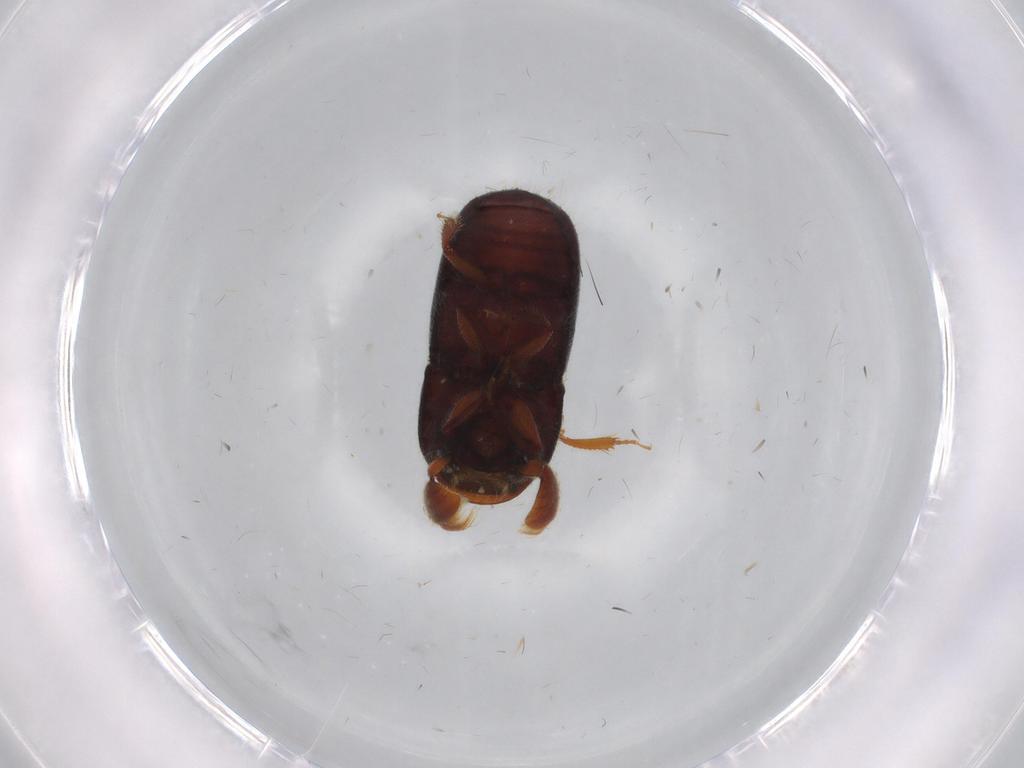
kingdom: Animalia
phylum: Arthropoda
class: Insecta
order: Coleoptera
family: Curculionidae
